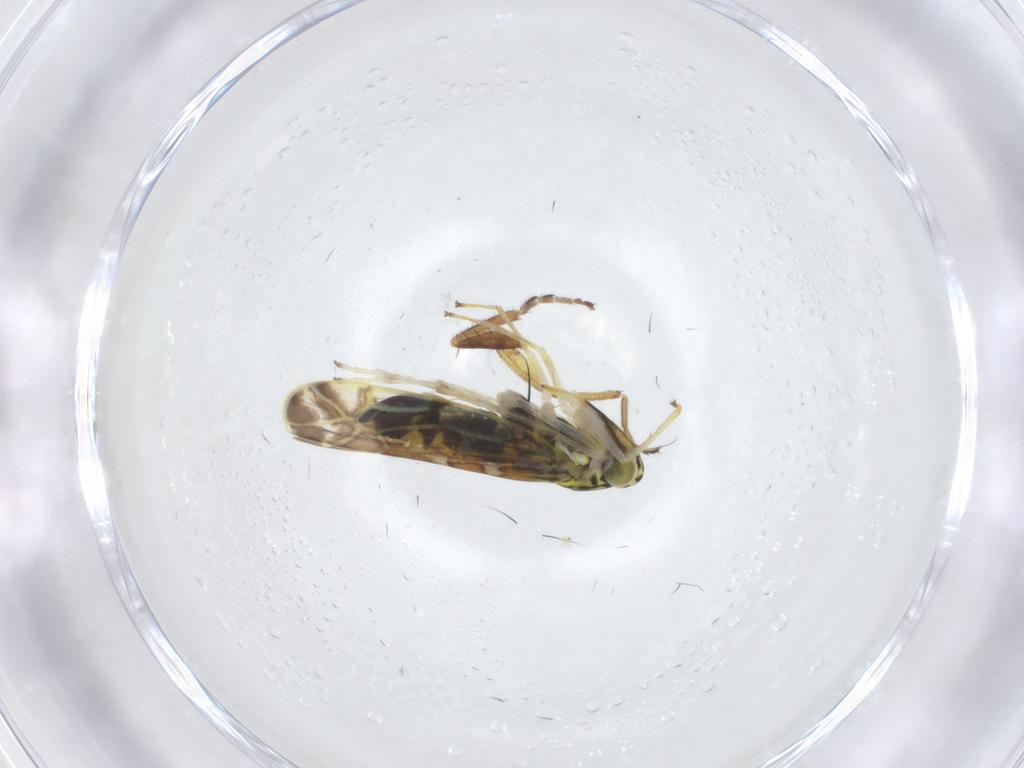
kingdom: Animalia
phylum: Arthropoda
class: Insecta
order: Hemiptera
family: Cicadellidae
